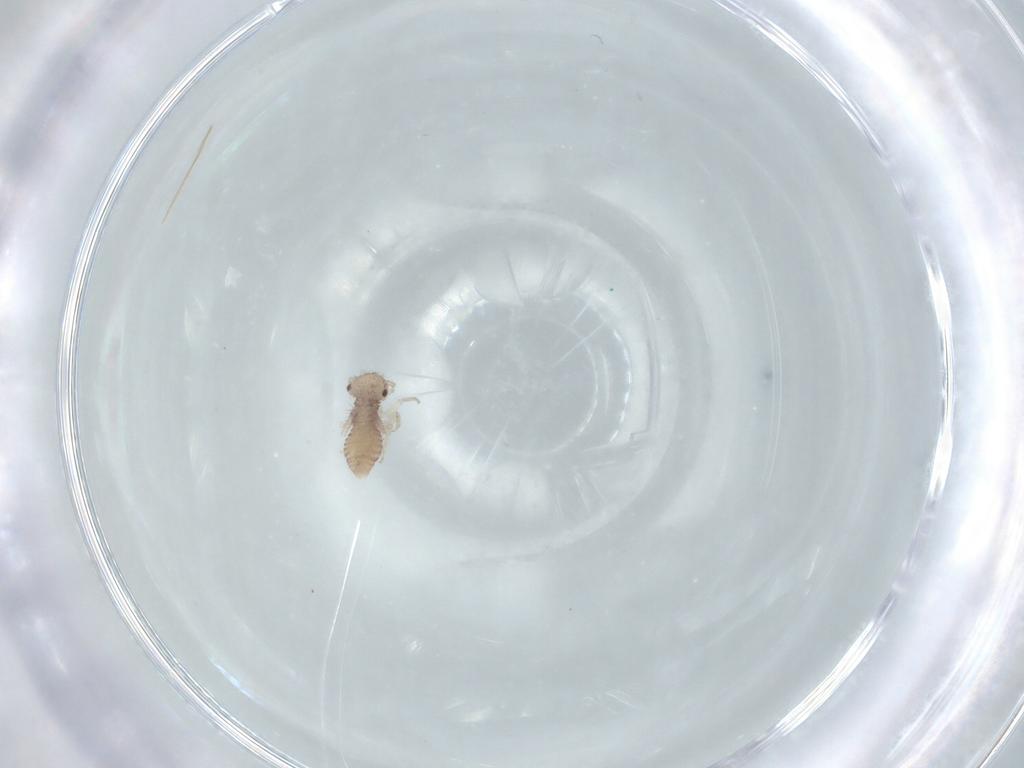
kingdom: Animalia
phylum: Arthropoda
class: Insecta
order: Psocodea
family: Ectopsocidae
